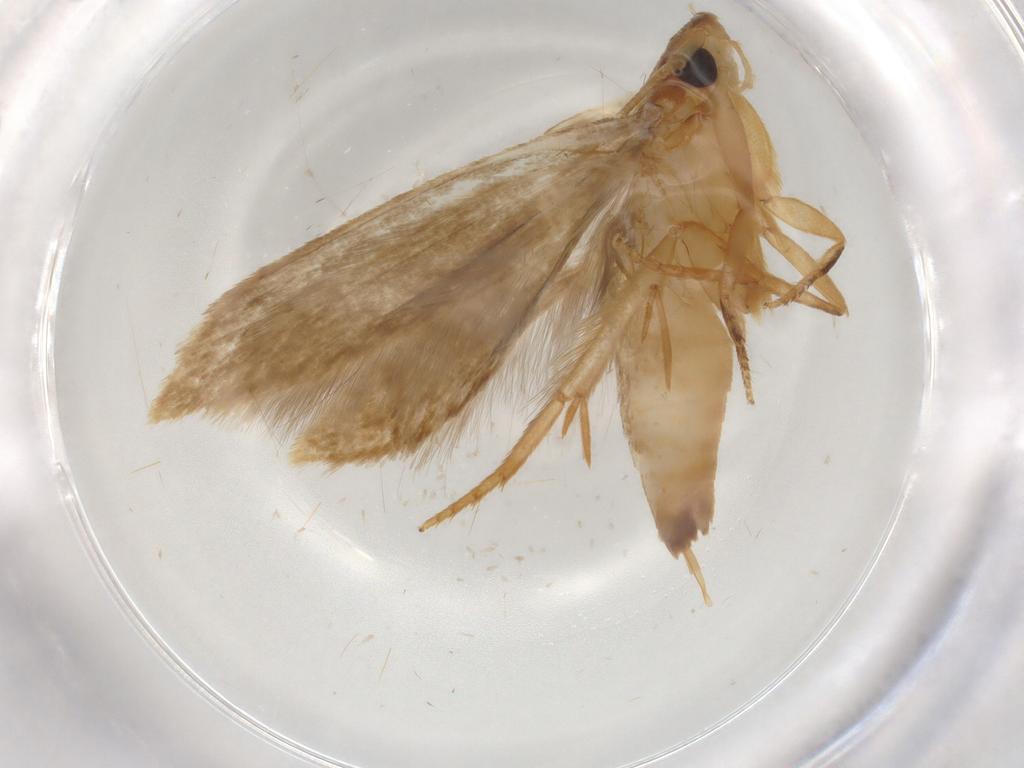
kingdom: Animalia
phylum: Arthropoda
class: Insecta
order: Lepidoptera
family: Tineidae
